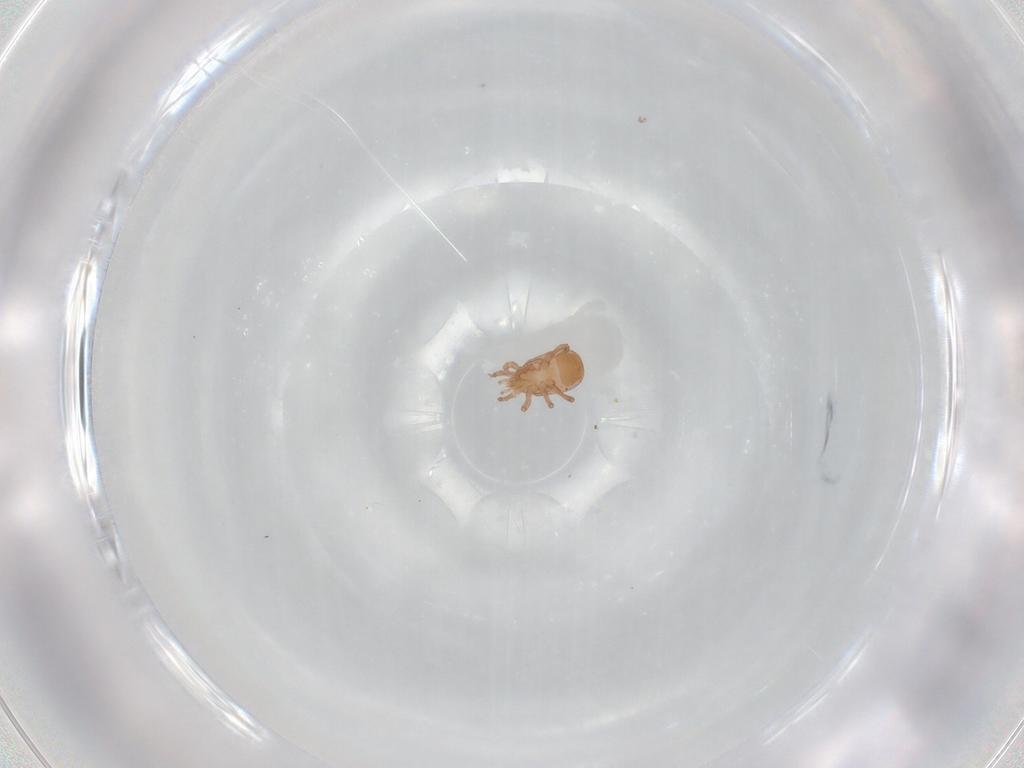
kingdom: Animalia
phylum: Arthropoda
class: Arachnida
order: Sarcoptiformes
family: Alycidae
